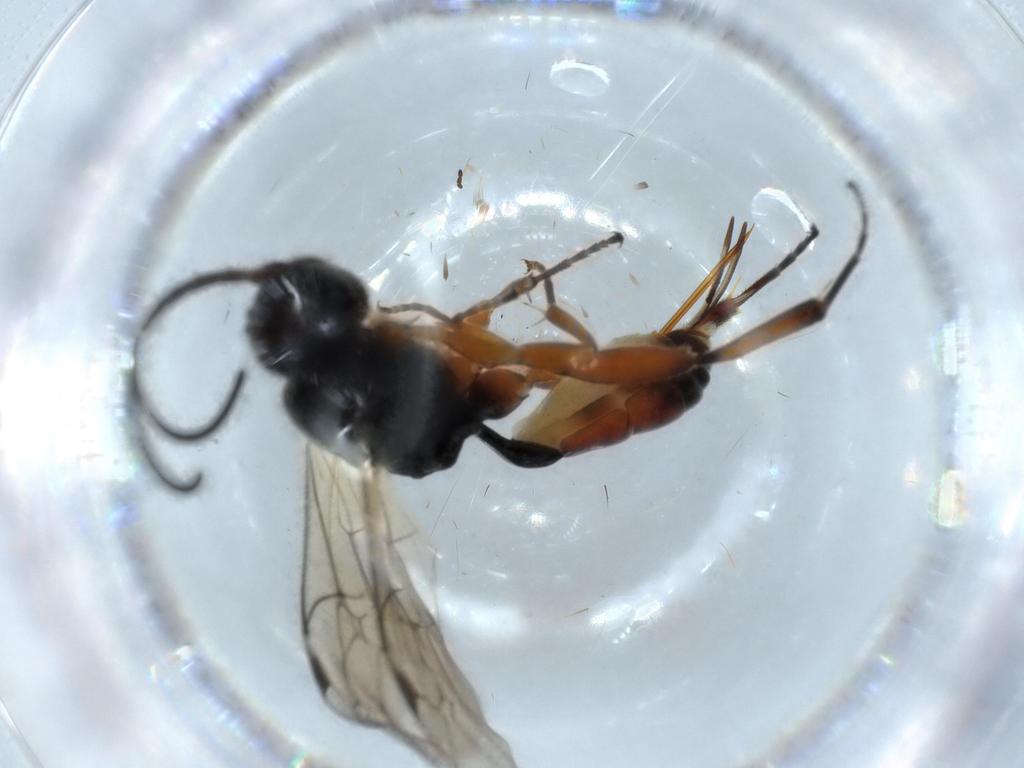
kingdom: Animalia
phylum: Arthropoda
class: Insecta
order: Hymenoptera
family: Ichneumonidae
